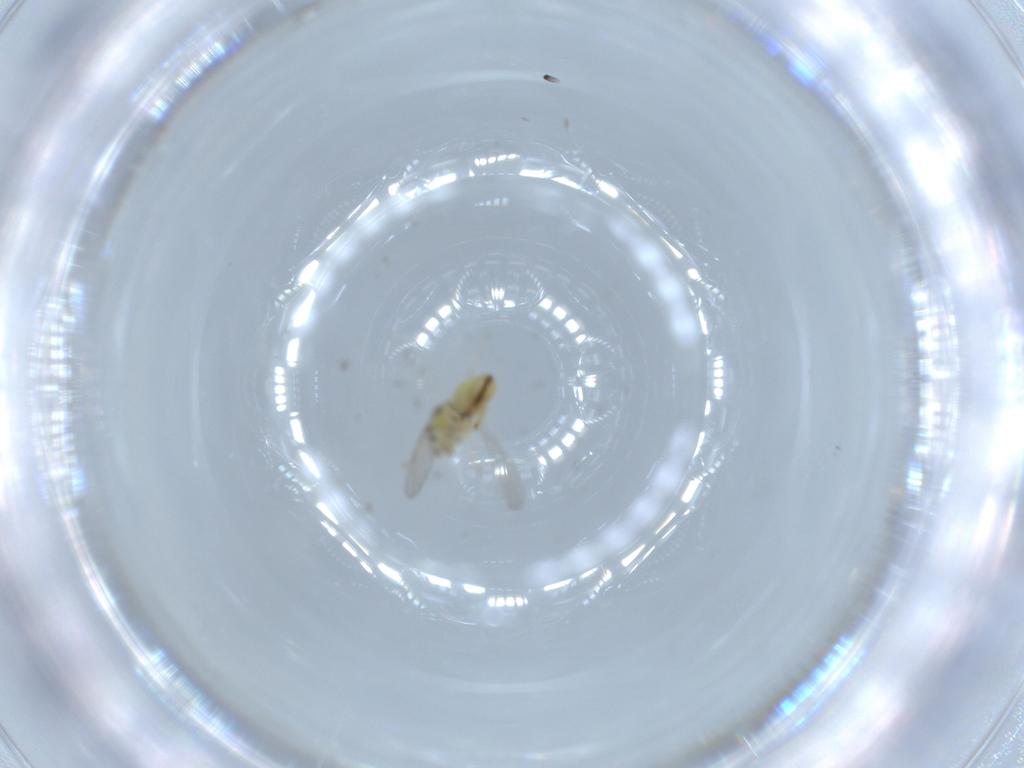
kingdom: Animalia
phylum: Arthropoda
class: Insecta
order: Hymenoptera
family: Eulophidae
